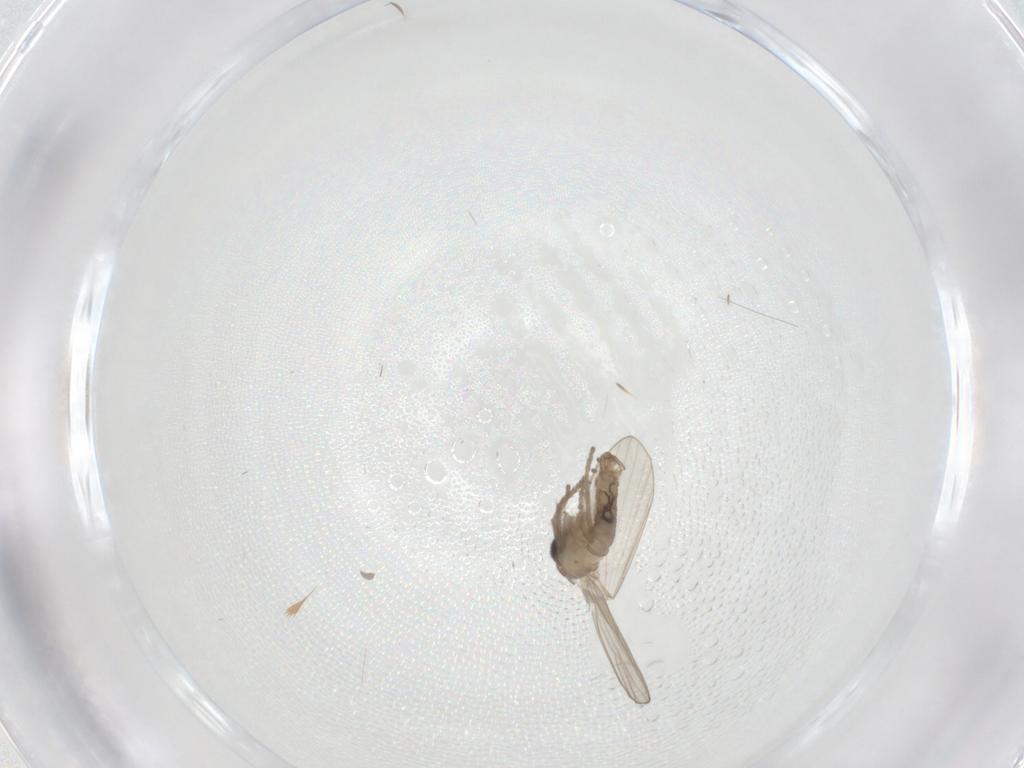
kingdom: Animalia
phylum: Arthropoda
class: Insecta
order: Diptera
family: Psychodidae
